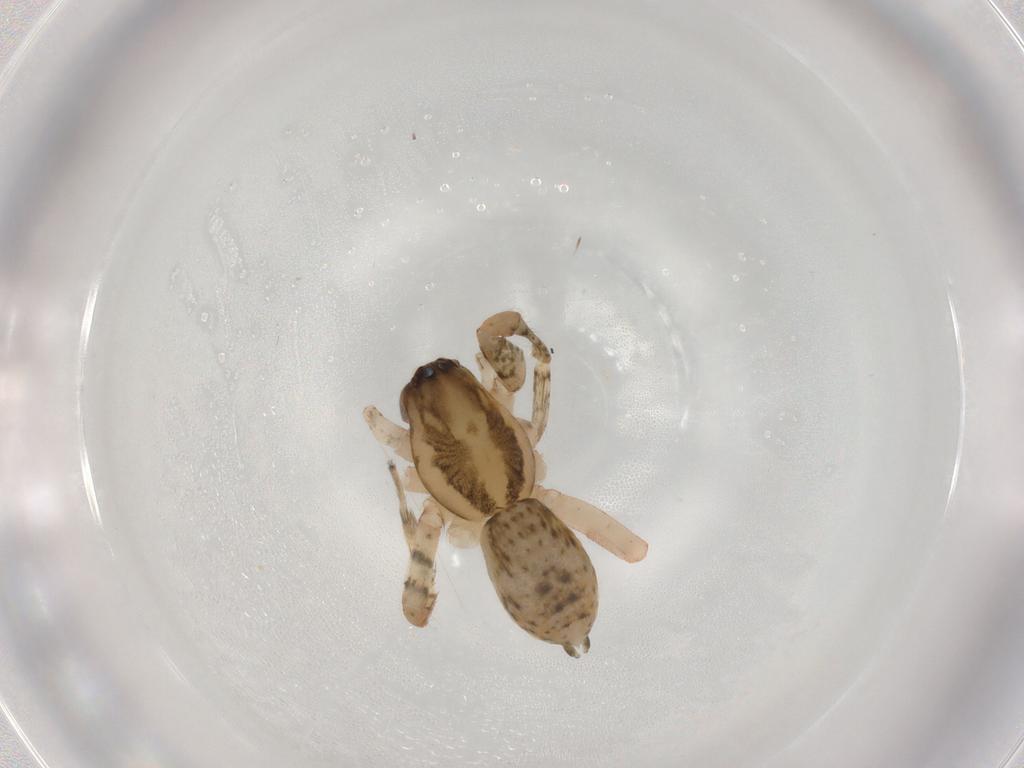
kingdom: Animalia
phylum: Arthropoda
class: Arachnida
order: Araneae
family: Anyphaenidae
